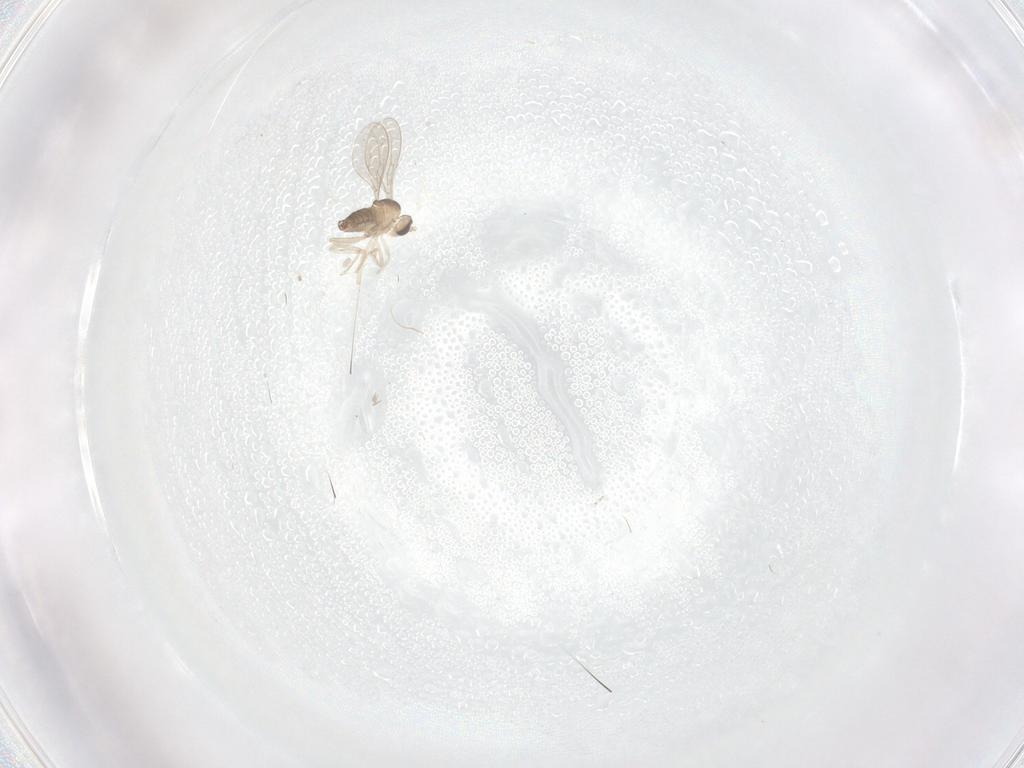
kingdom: Animalia
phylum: Arthropoda
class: Insecta
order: Diptera
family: Cecidomyiidae
